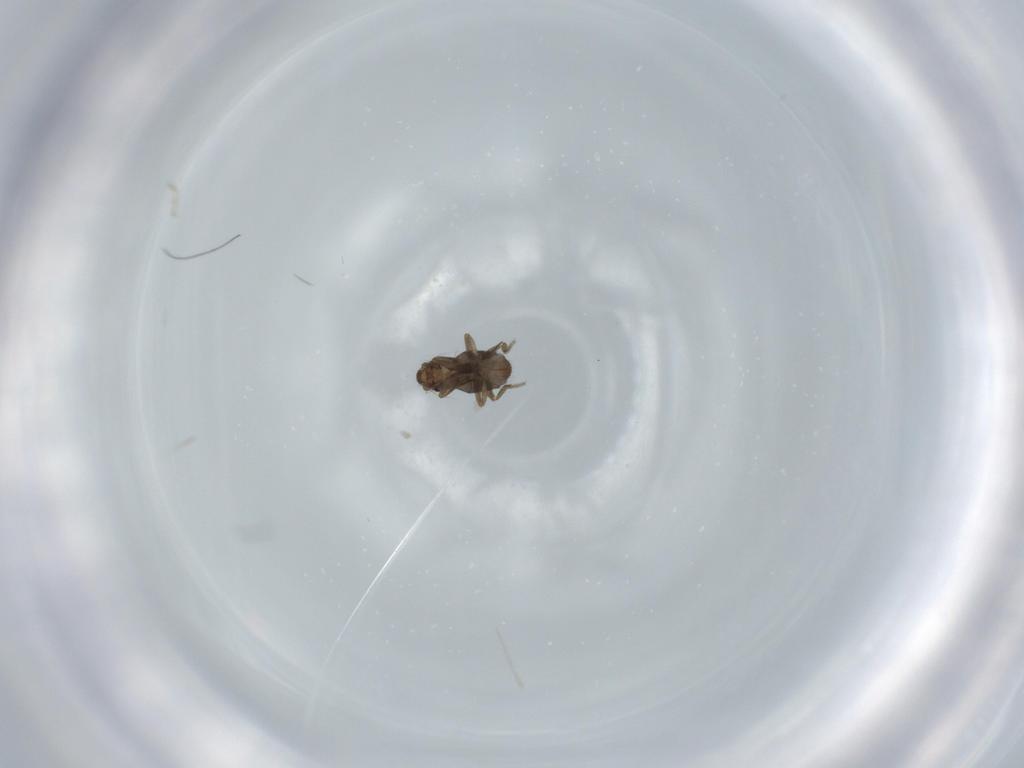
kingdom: Animalia
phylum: Arthropoda
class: Insecta
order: Diptera
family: Phoridae
